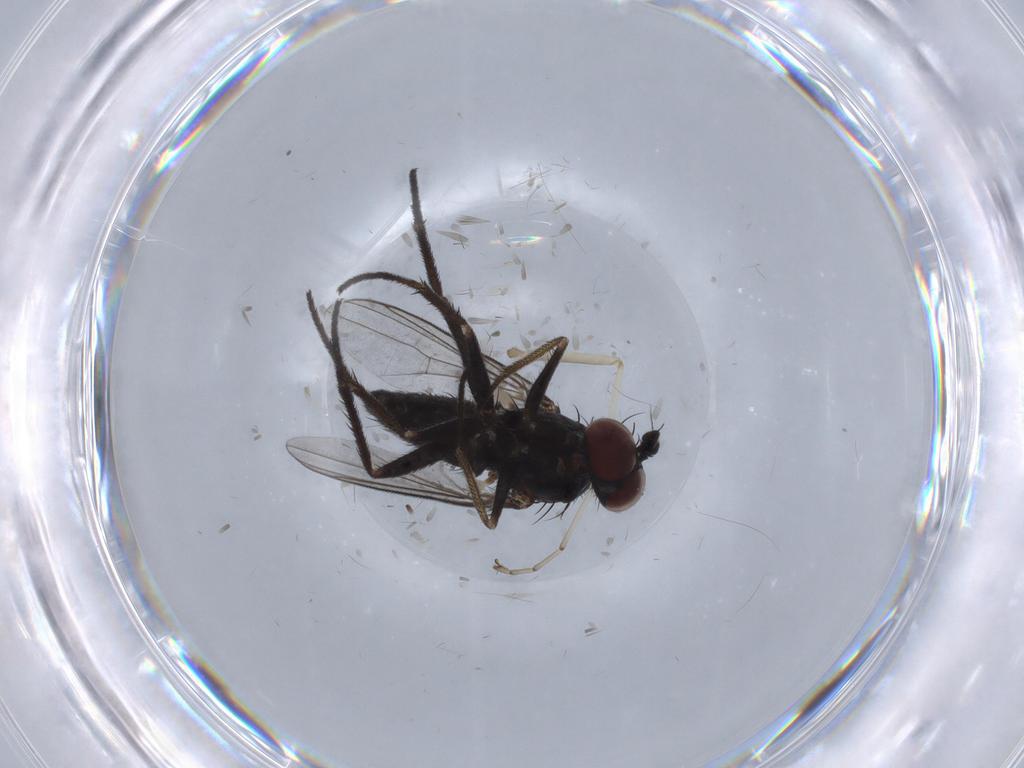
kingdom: Animalia
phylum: Arthropoda
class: Insecta
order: Diptera
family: Dolichopodidae
